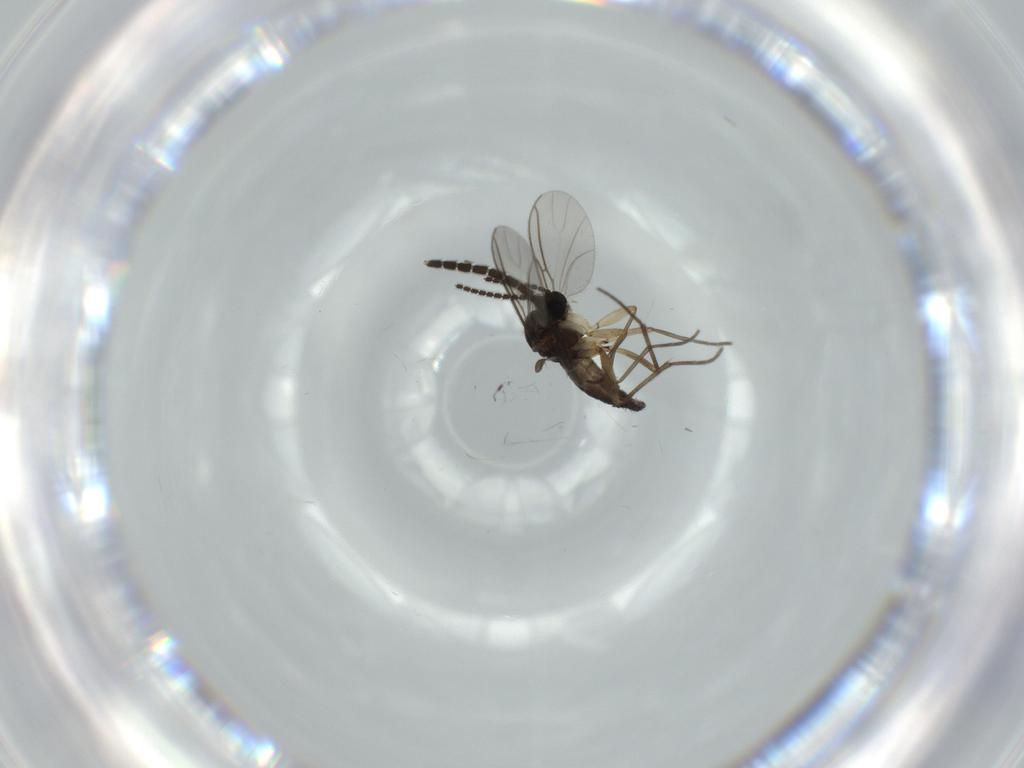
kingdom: Animalia
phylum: Arthropoda
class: Insecta
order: Diptera
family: Sciaridae
